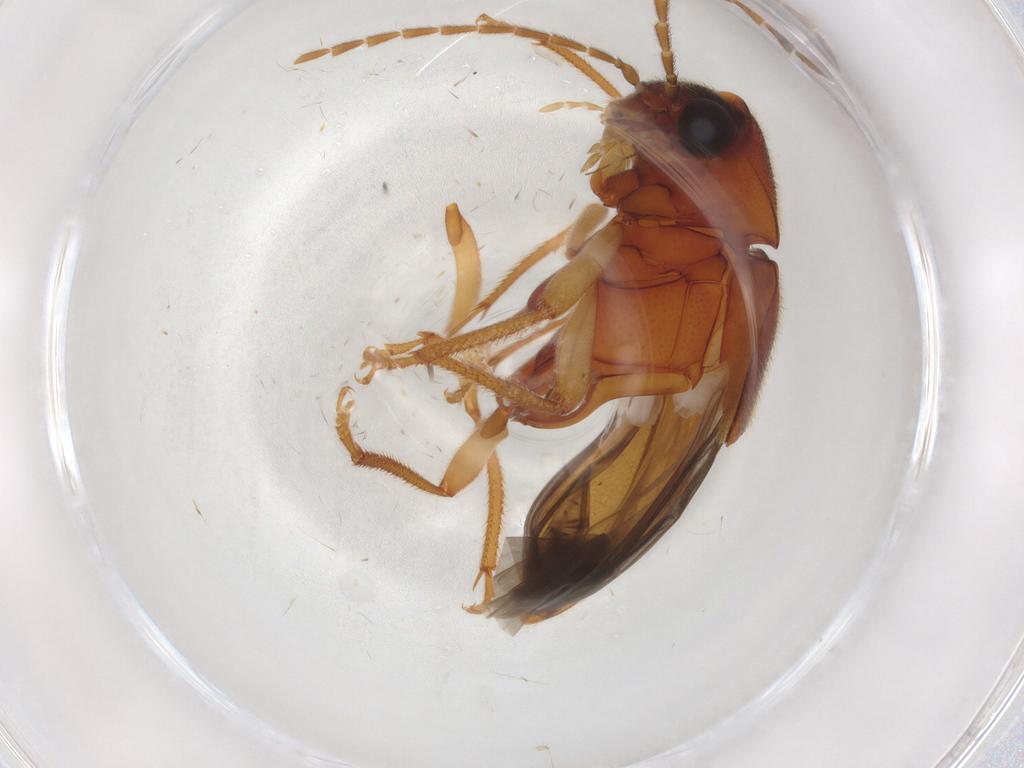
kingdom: Animalia
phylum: Arthropoda
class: Insecta
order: Coleoptera
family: Ptilodactylidae
